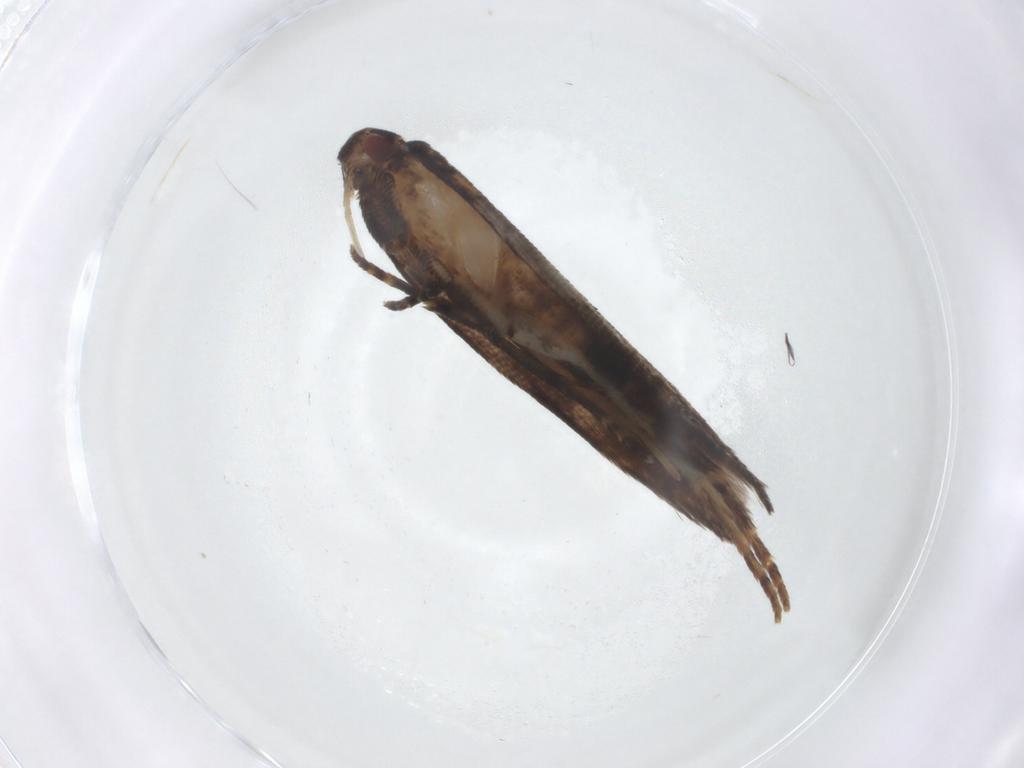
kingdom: Animalia
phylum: Arthropoda
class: Insecta
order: Lepidoptera
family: Elachistidae
